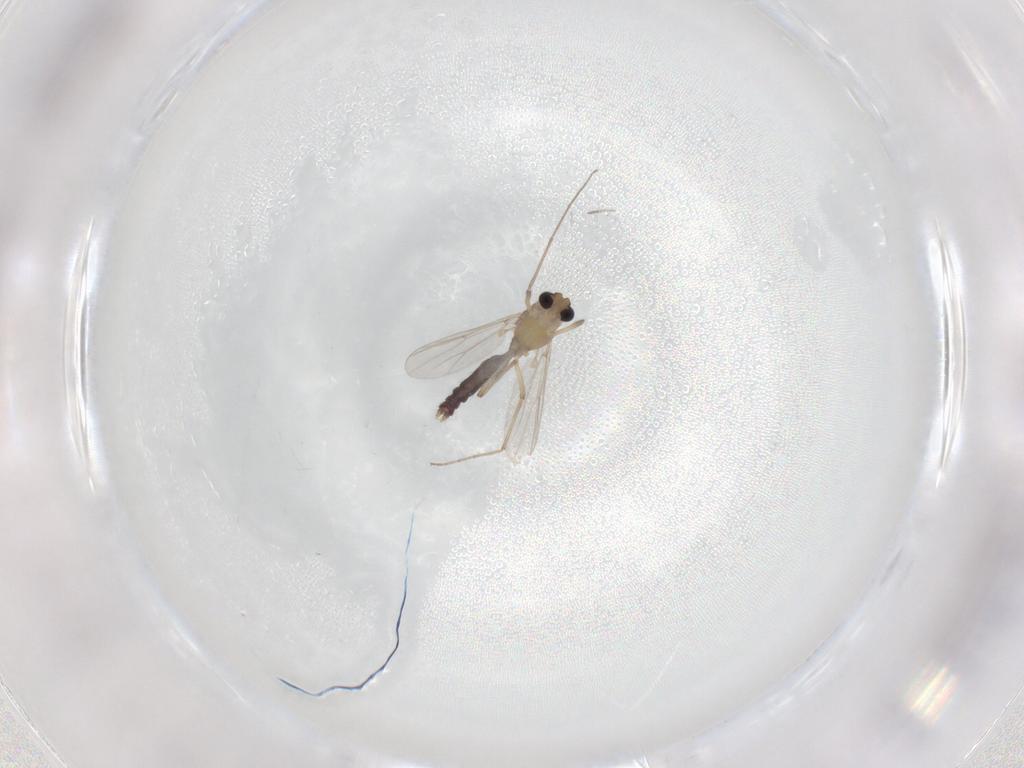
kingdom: Animalia
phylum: Arthropoda
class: Insecta
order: Diptera
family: Chironomidae
